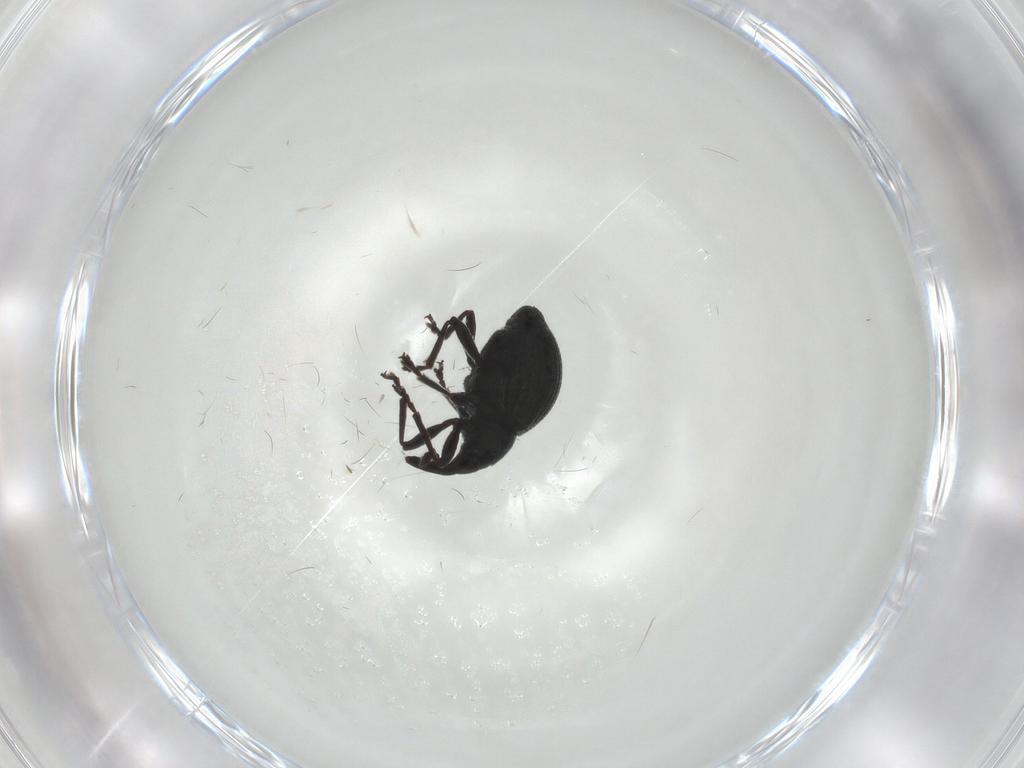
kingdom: Animalia
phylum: Arthropoda
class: Insecta
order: Coleoptera
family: Brentidae
